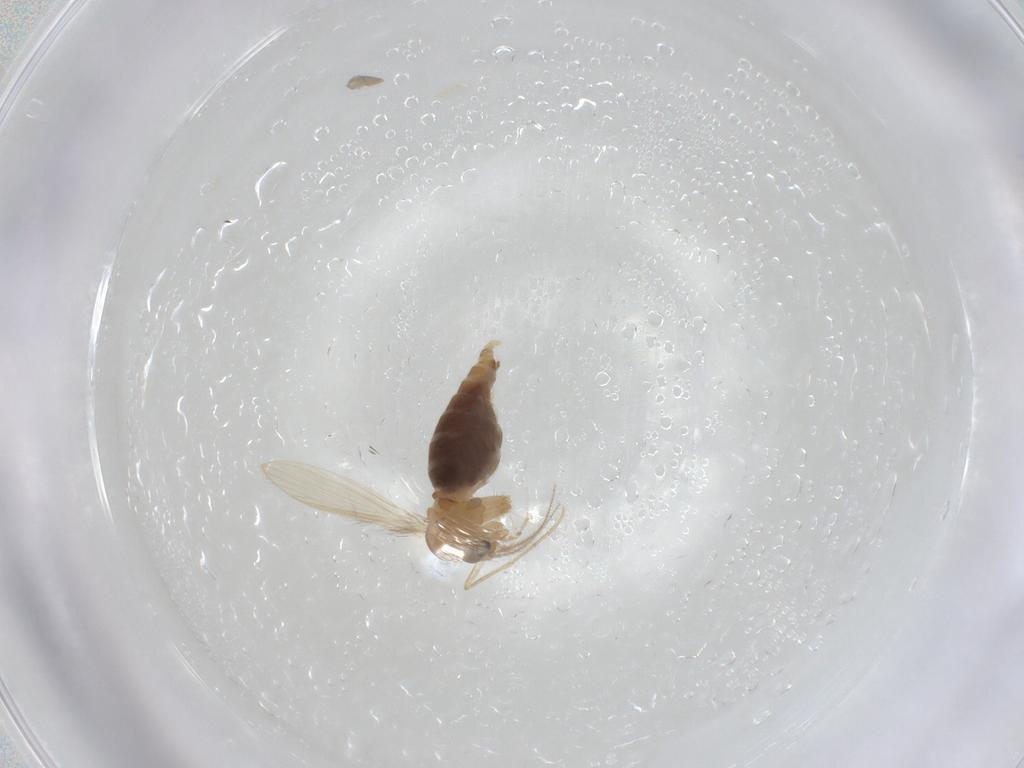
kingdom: Animalia
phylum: Arthropoda
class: Insecta
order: Diptera
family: Psychodidae
